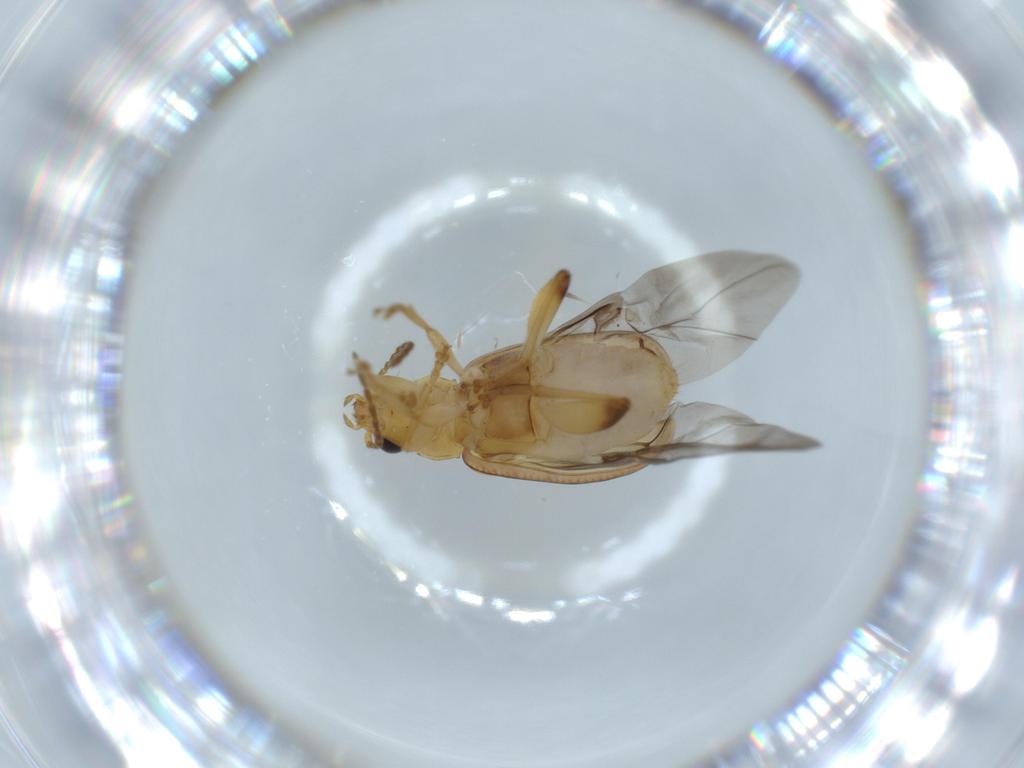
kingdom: Animalia
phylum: Arthropoda
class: Insecta
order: Coleoptera
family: Chrysomelidae
